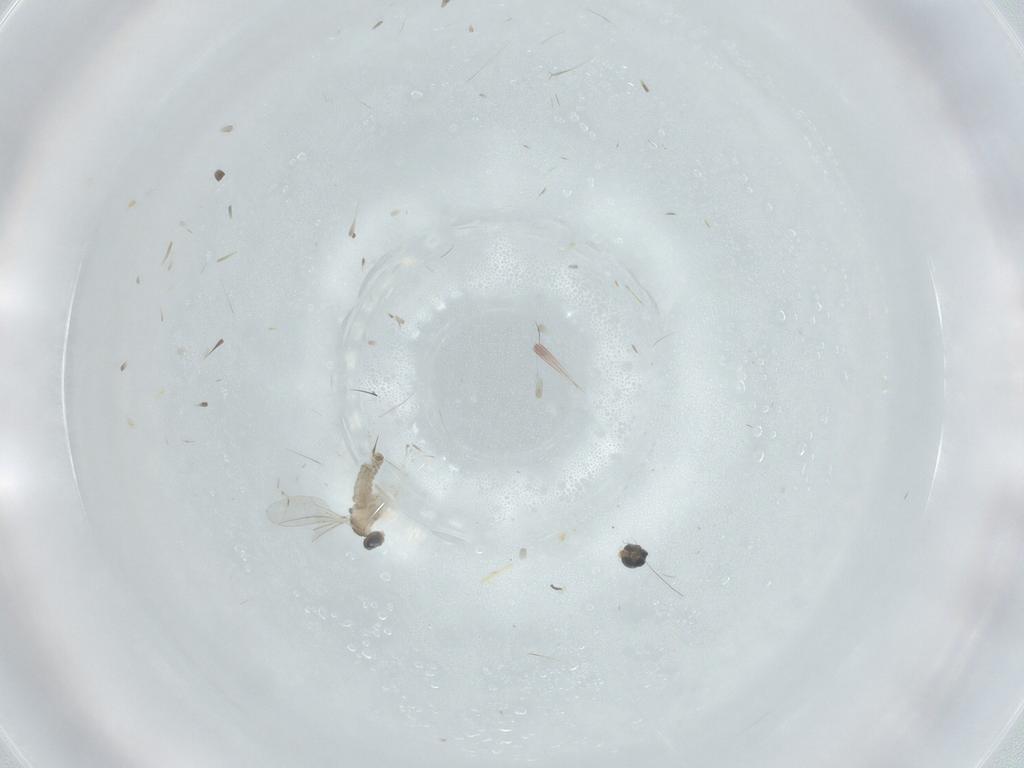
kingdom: Animalia
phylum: Arthropoda
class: Insecta
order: Diptera
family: Cecidomyiidae
